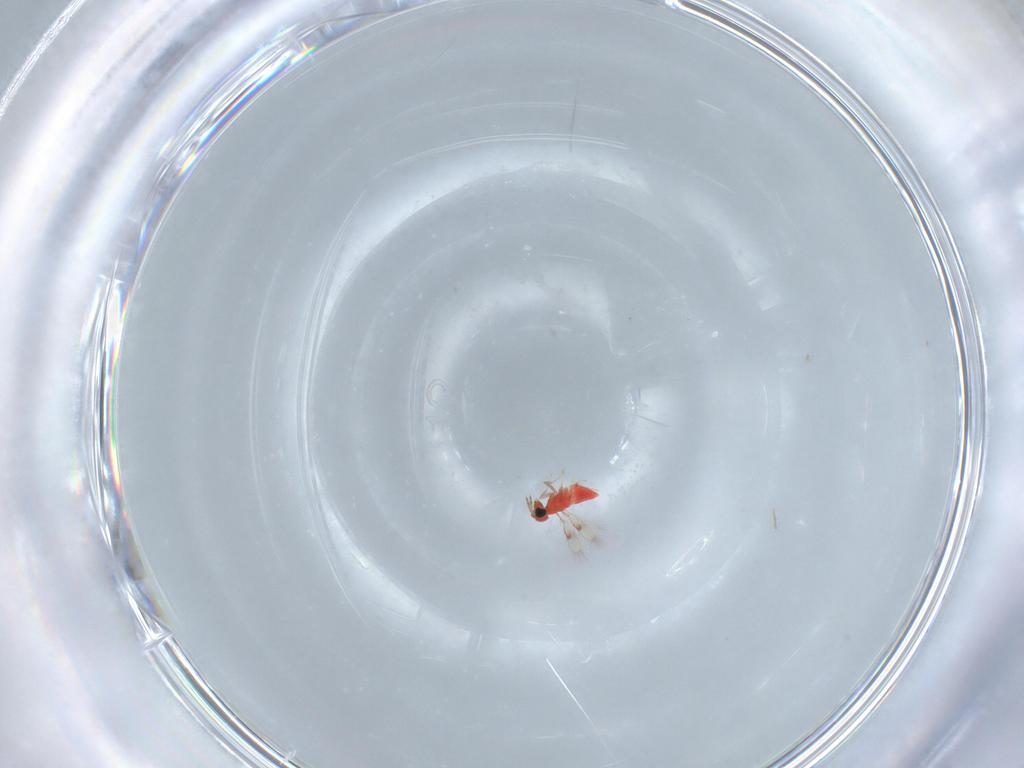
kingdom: Animalia
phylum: Arthropoda
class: Insecta
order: Hymenoptera
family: Trichogrammatidae
